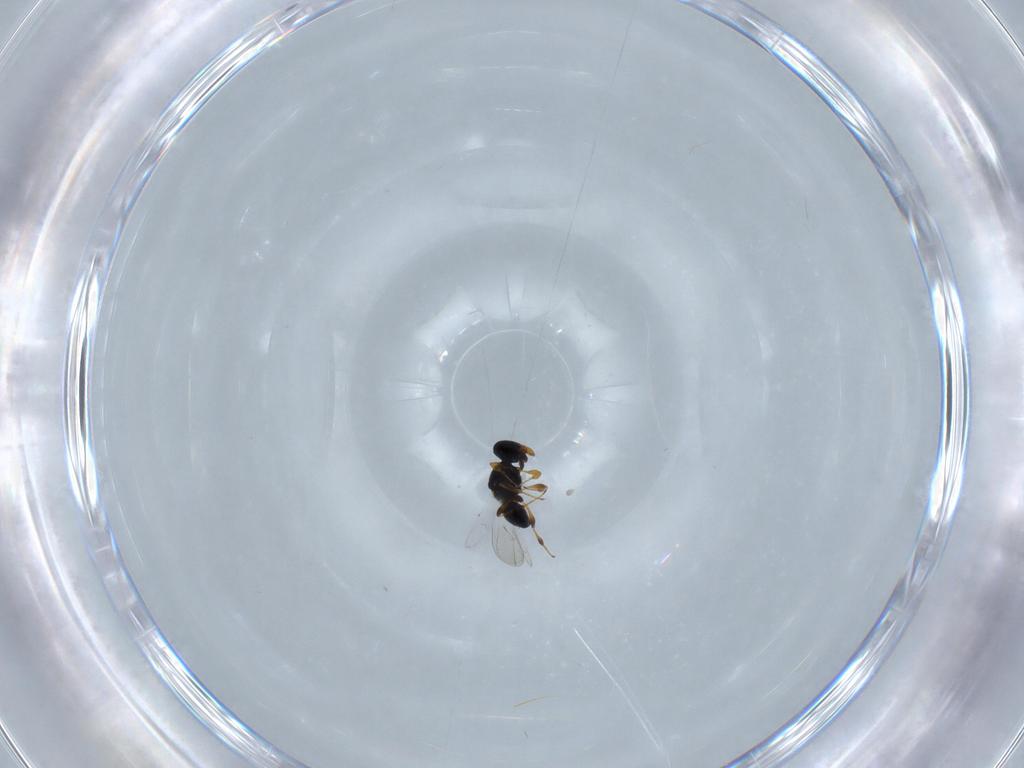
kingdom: Animalia
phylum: Arthropoda
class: Insecta
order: Hymenoptera
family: Platygastridae
